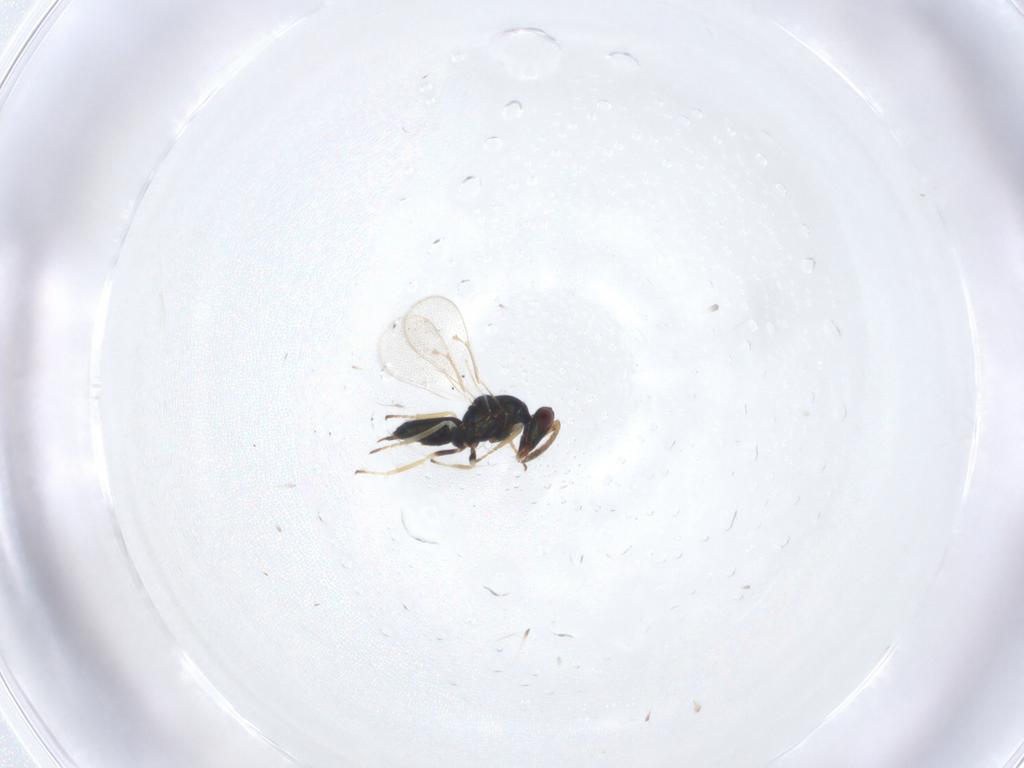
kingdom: Animalia
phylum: Arthropoda
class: Insecta
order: Hymenoptera
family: Eulophidae
